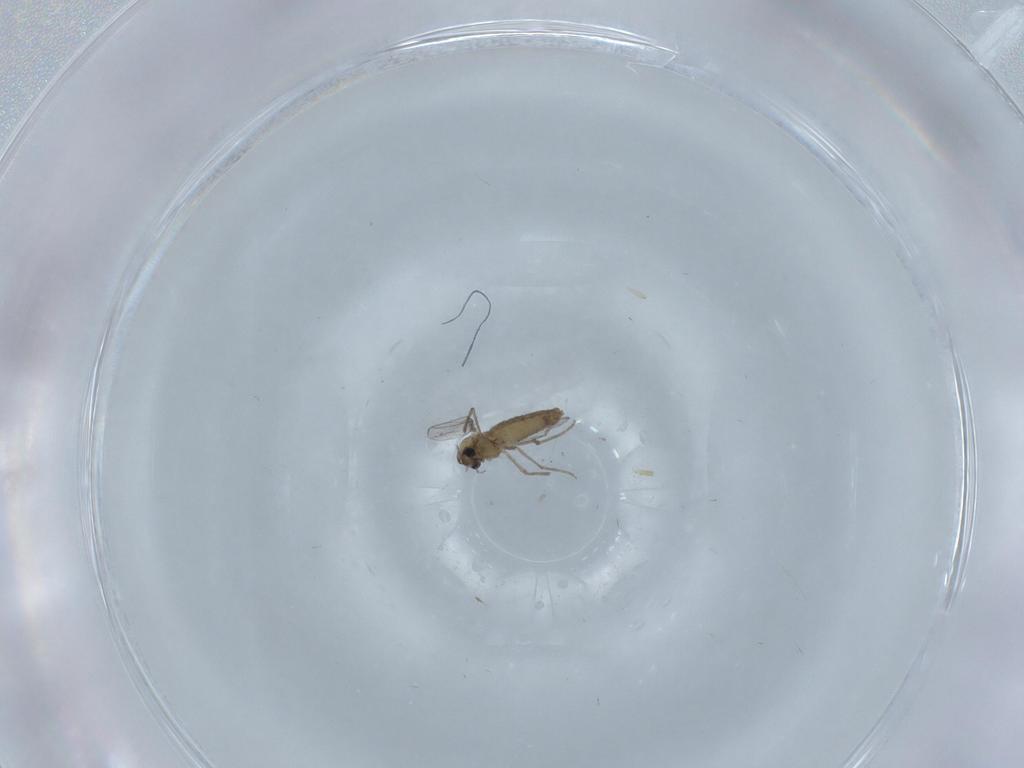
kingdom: Animalia
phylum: Arthropoda
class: Insecta
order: Diptera
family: Chironomidae
